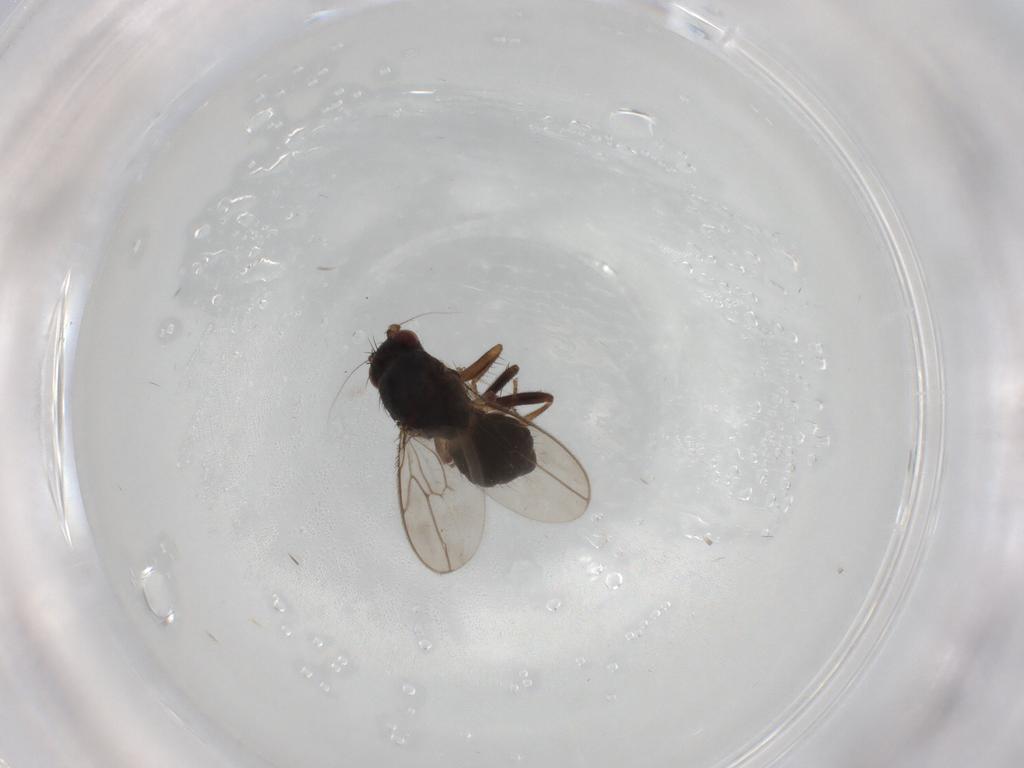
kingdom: Animalia
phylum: Arthropoda
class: Insecta
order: Diptera
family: Sphaeroceridae
